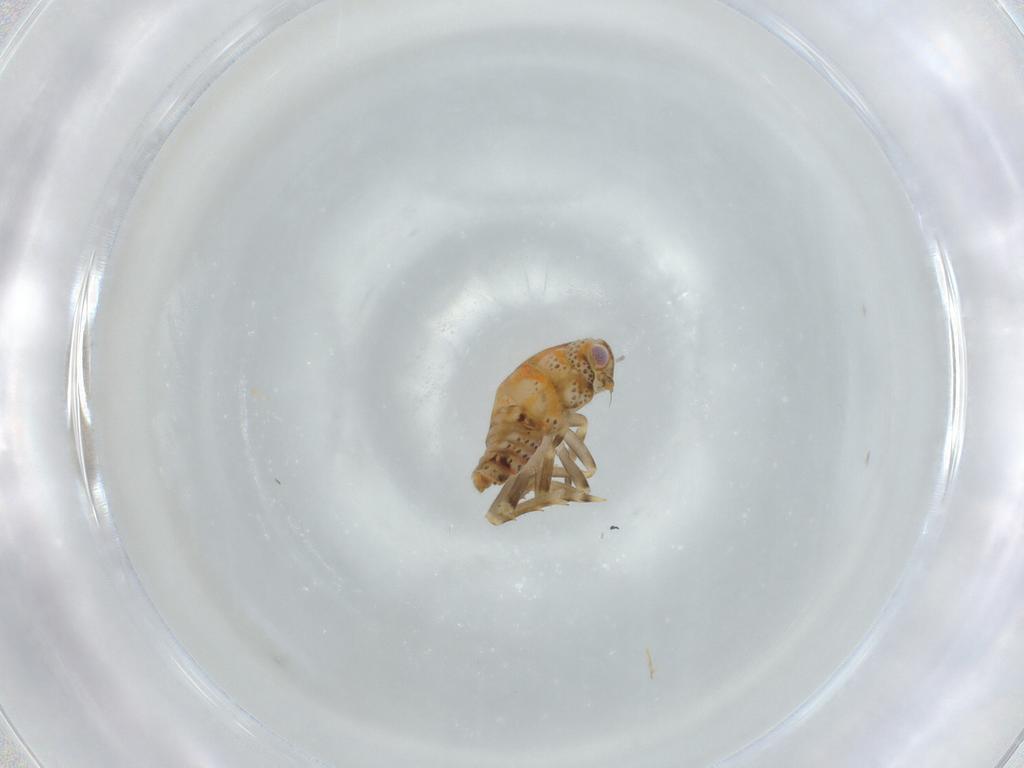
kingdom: Animalia
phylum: Arthropoda
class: Insecta
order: Hemiptera
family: Flatidae
